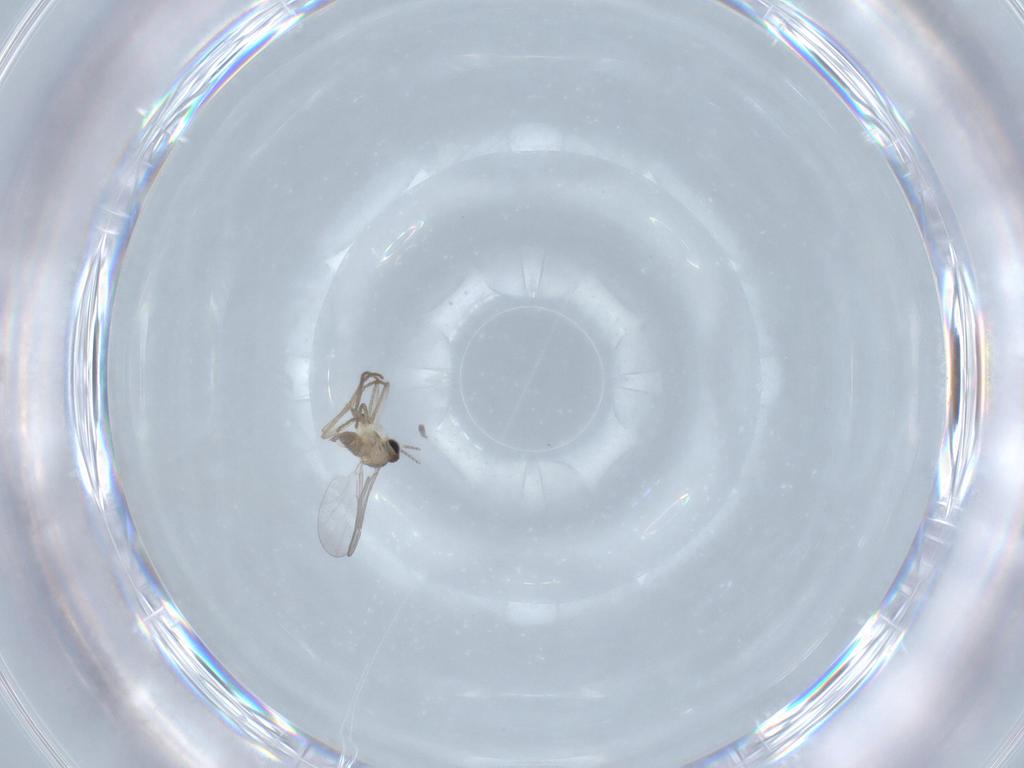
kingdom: Animalia
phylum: Arthropoda
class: Insecta
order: Diptera
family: Cecidomyiidae
